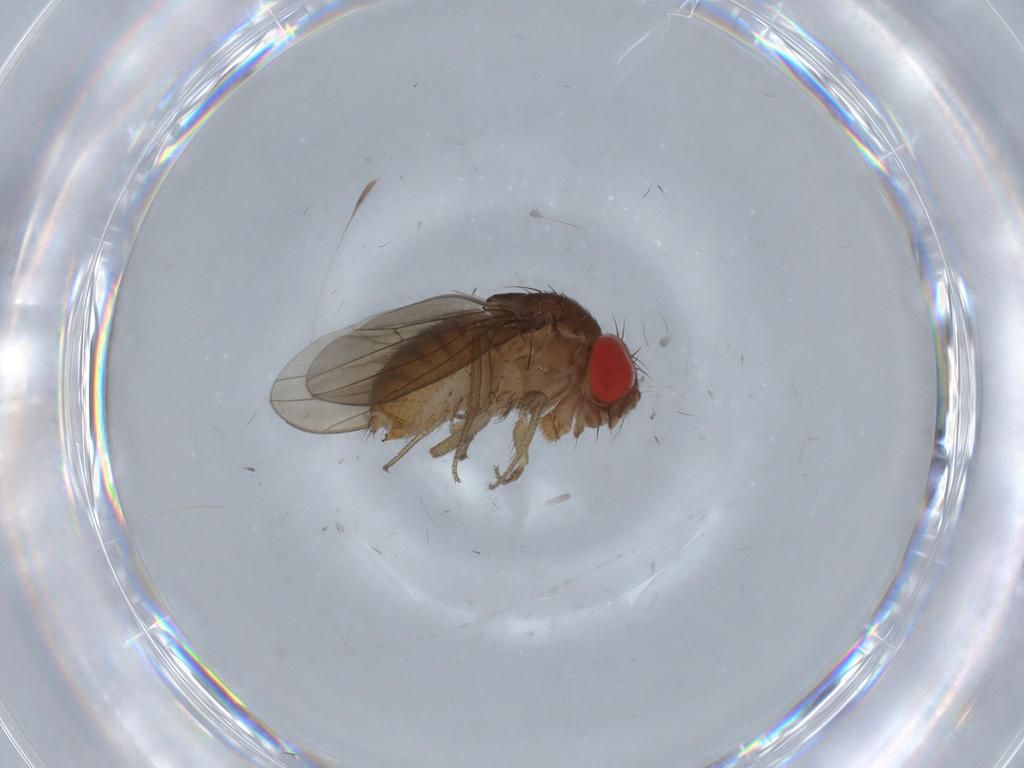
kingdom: Animalia
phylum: Arthropoda
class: Insecta
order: Diptera
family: Drosophilidae
